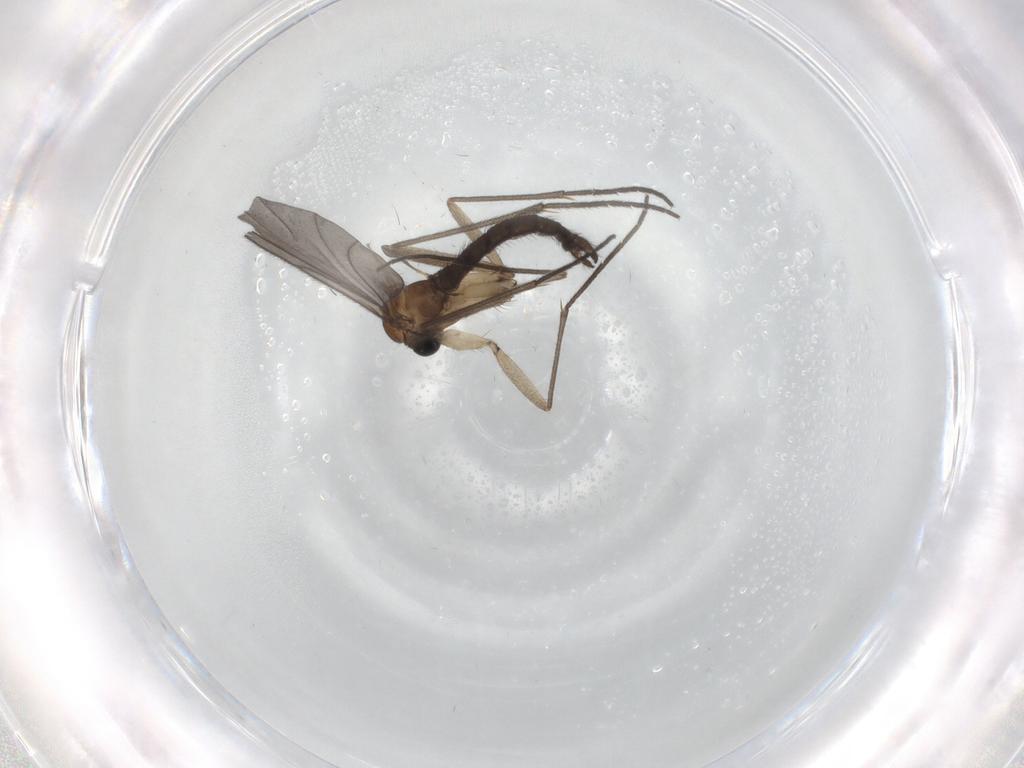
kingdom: Animalia
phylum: Arthropoda
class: Insecta
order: Diptera
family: Sciaridae
